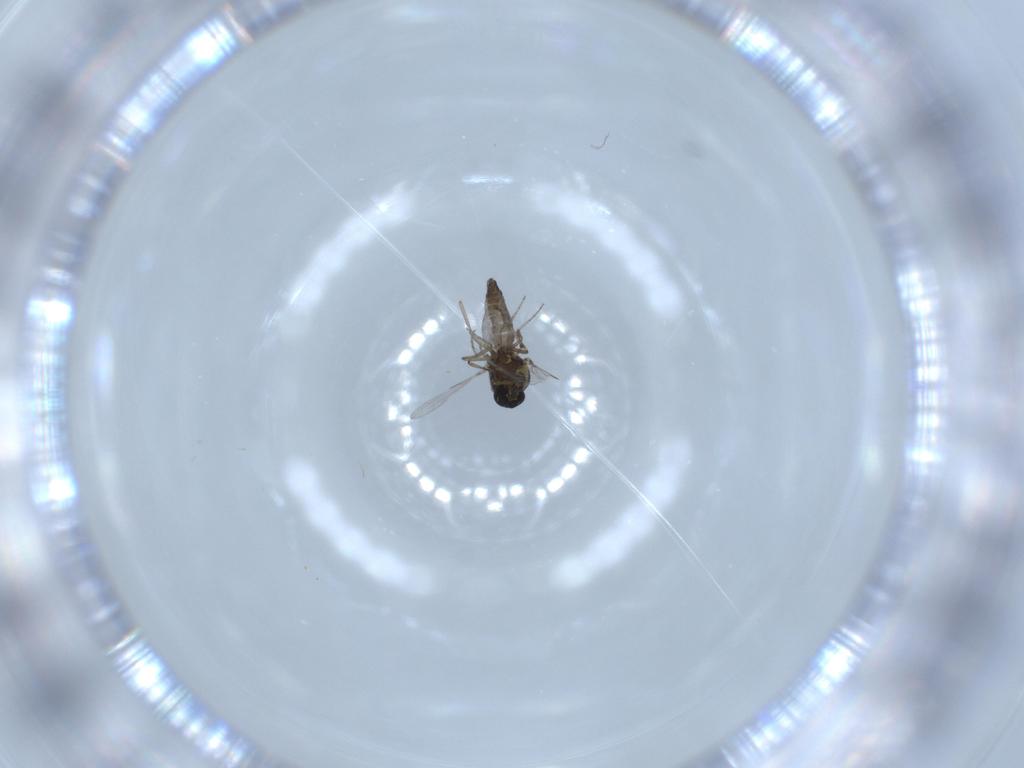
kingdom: Animalia
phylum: Arthropoda
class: Insecta
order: Diptera
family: Ceratopogonidae
